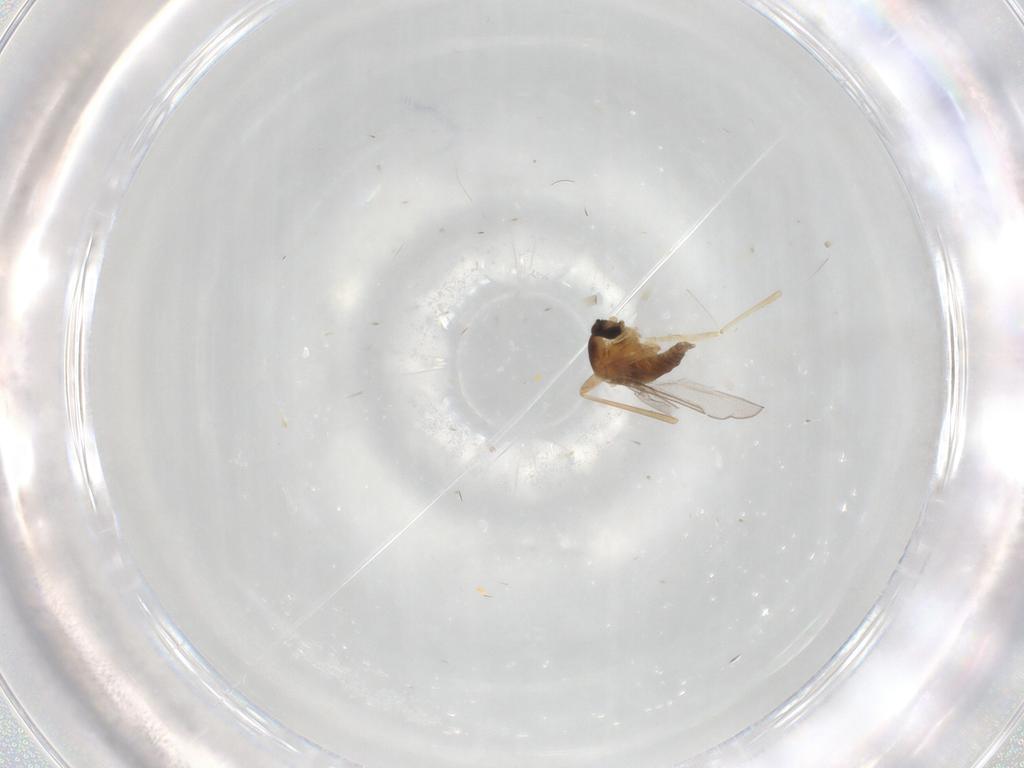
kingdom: Animalia
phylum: Arthropoda
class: Insecta
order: Diptera
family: Cecidomyiidae
